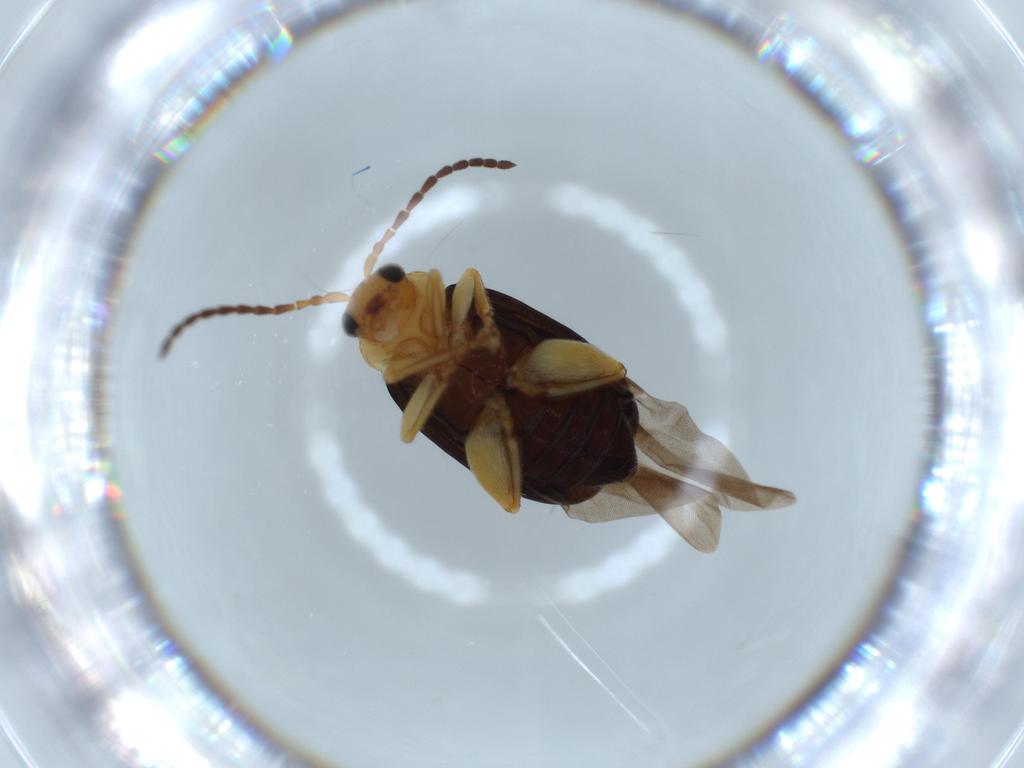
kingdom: Animalia
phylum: Arthropoda
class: Insecta
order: Coleoptera
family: Chrysomelidae
